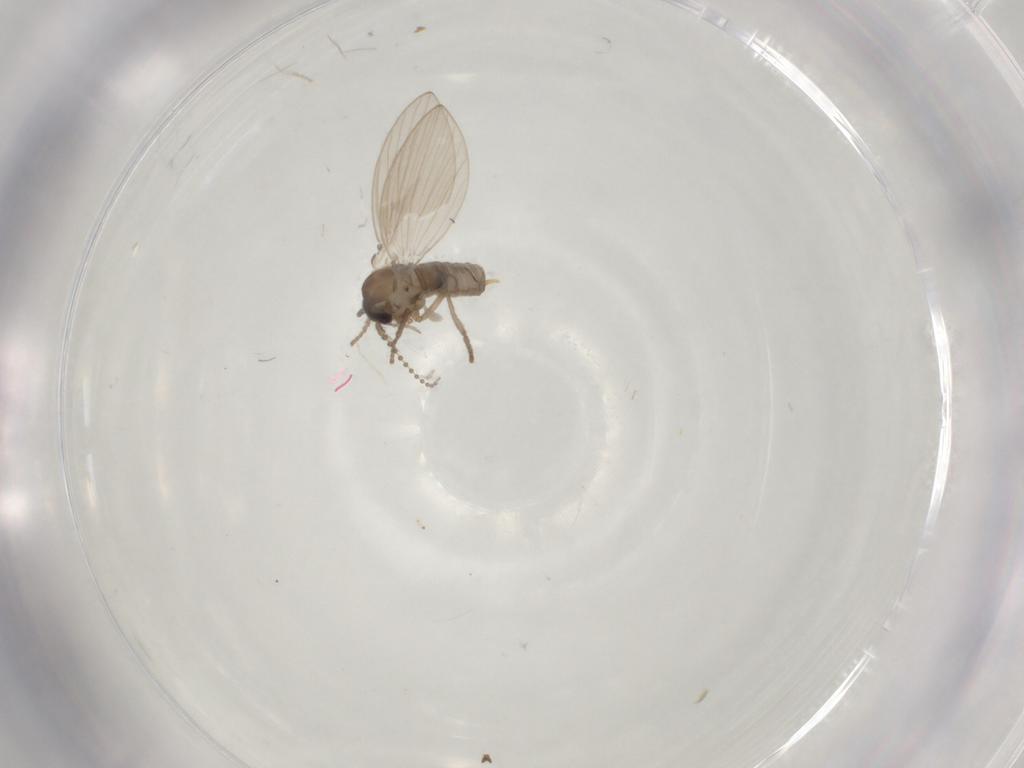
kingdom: Animalia
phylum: Arthropoda
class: Insecta
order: Diptera
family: Psychodidae
